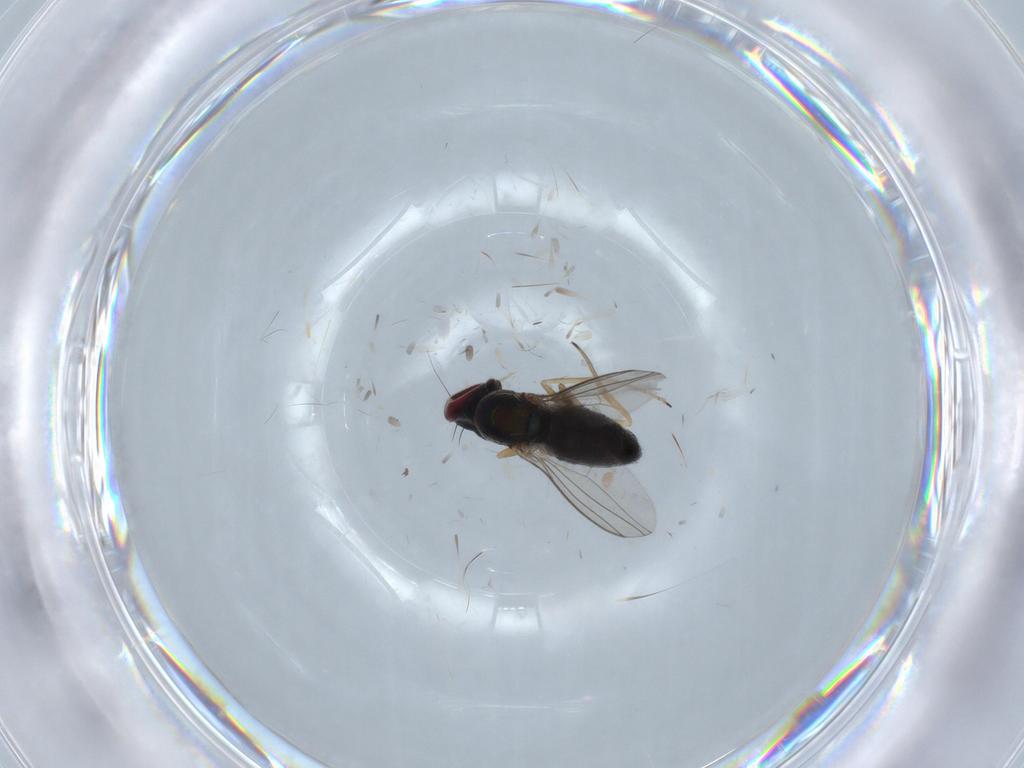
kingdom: Animalia
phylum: Arthropoda
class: Insecta
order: Diptera
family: Dolichopodidae
